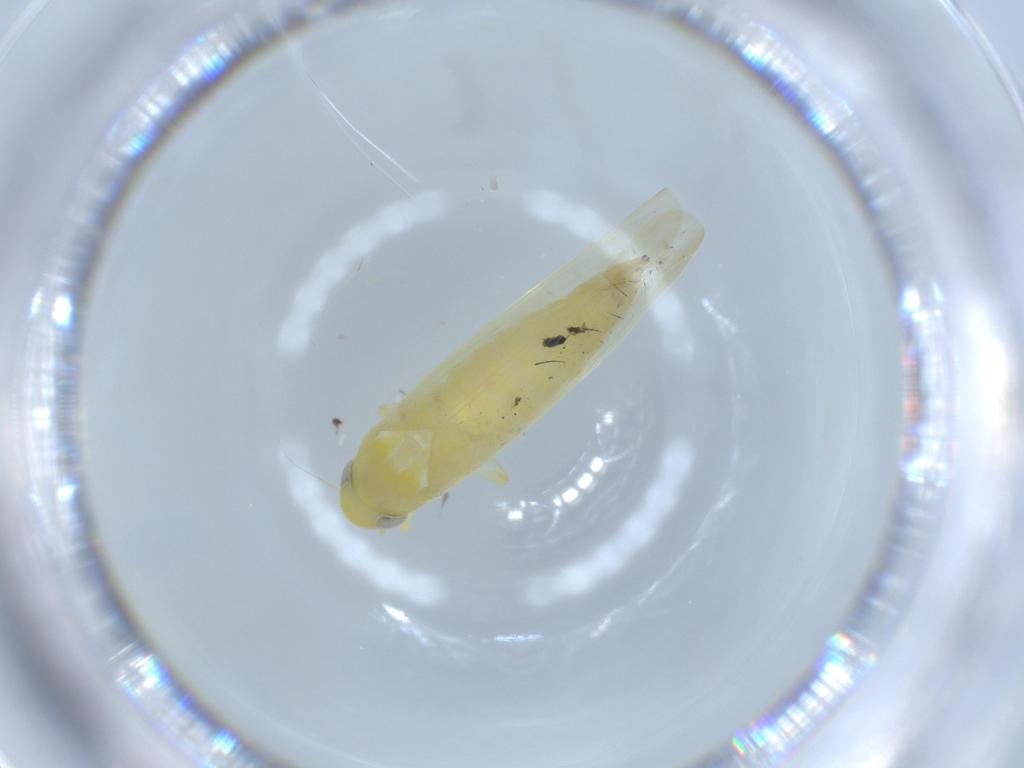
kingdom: Animalia
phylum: Arthropoda
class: Insecta
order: Hemiptera
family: Cicadellidae
